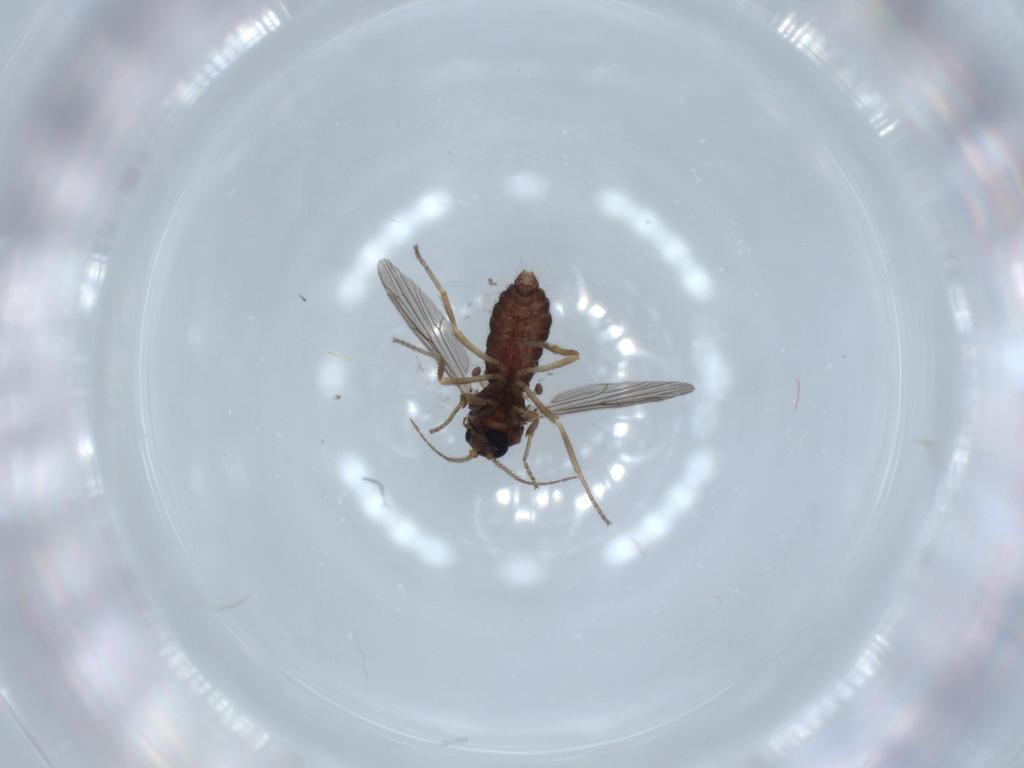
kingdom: Animalia
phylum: Arthropoda
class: Insecta
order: Diptera
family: Ceratopogonidae
